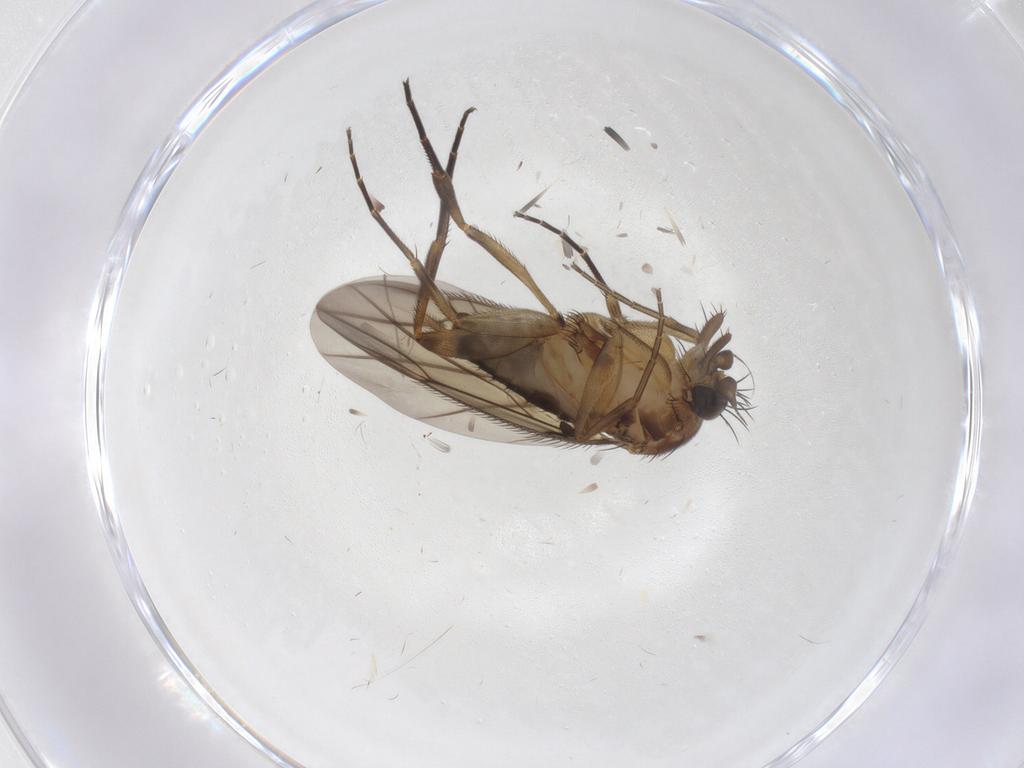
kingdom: Animalia
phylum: Arthropoda
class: Insecta
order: Diptera
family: Phoridae
